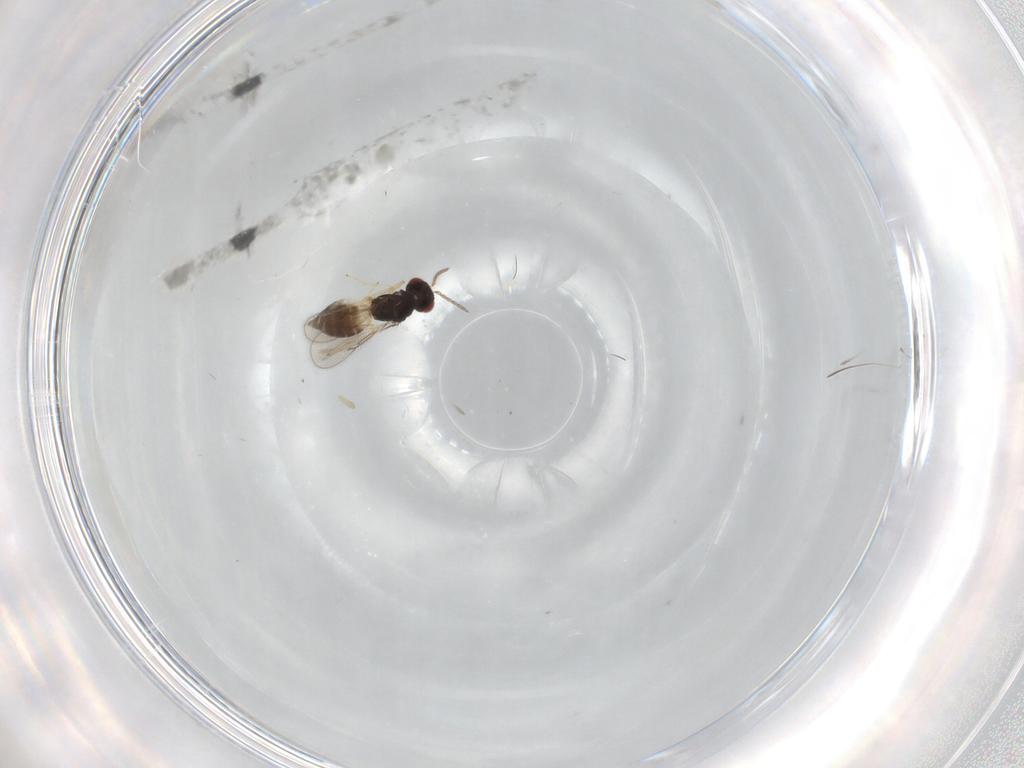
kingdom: Animalia
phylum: Arthropoda
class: Insecta
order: Hymenoptera
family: Eulophidae
